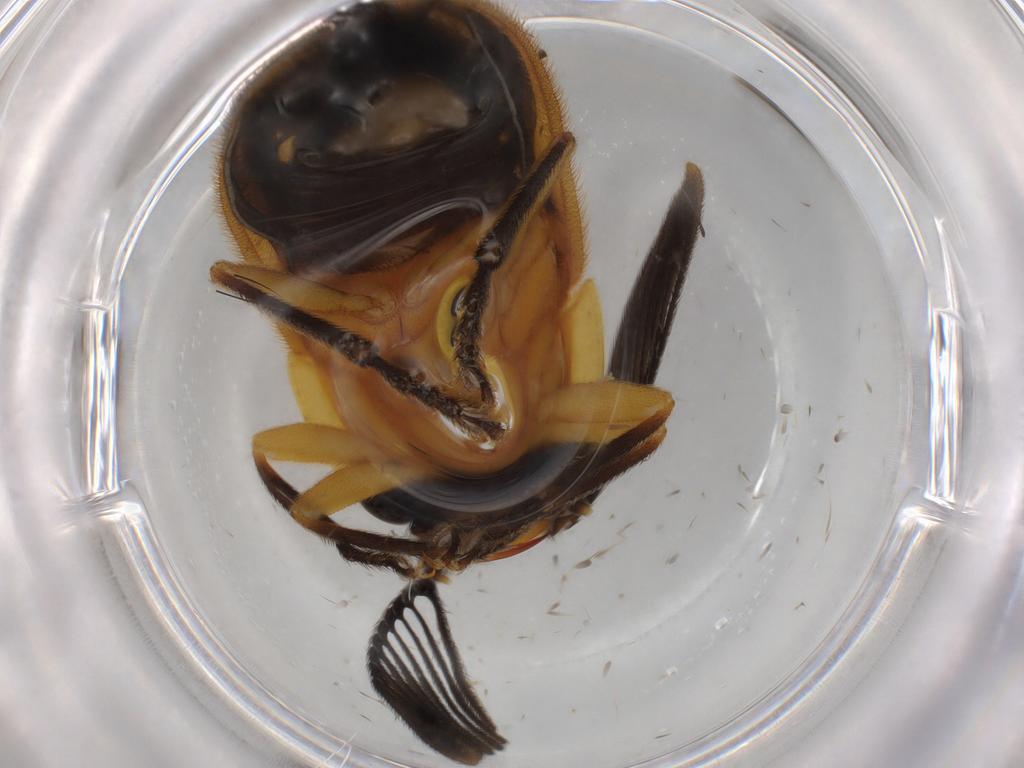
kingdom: Animalia
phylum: Arthropoda
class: Insecta
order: Coleoptera
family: Lampyridae
